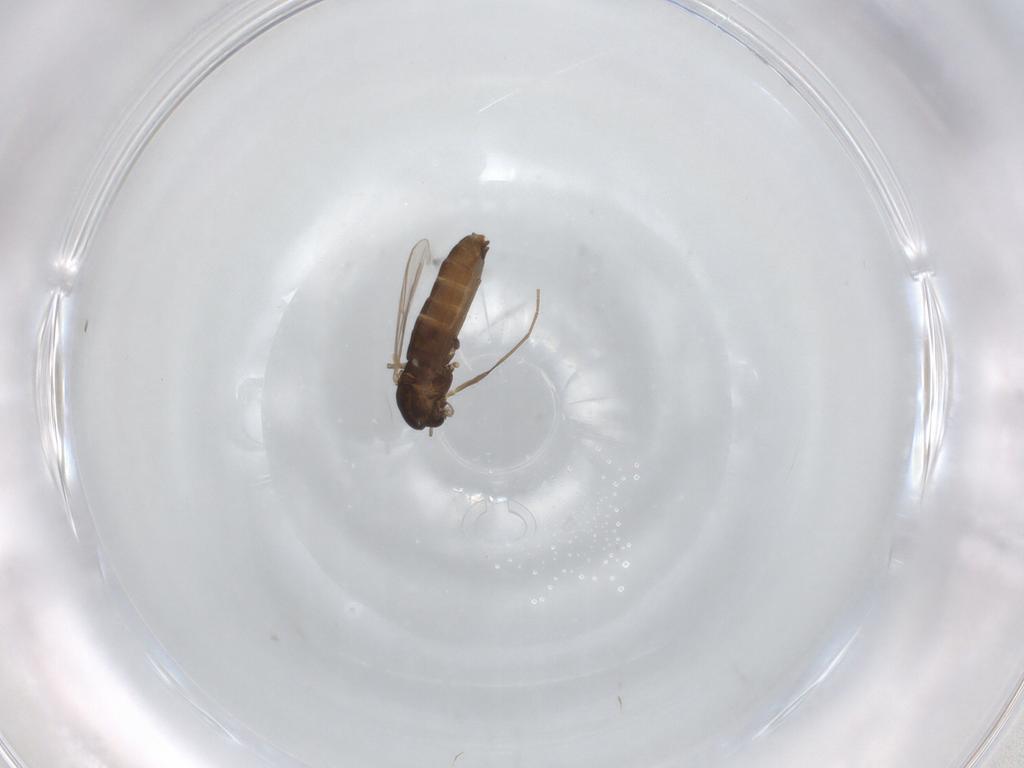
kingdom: Animalia
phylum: Arthropoda
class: Insecta
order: Diptera
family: Chironomidae
